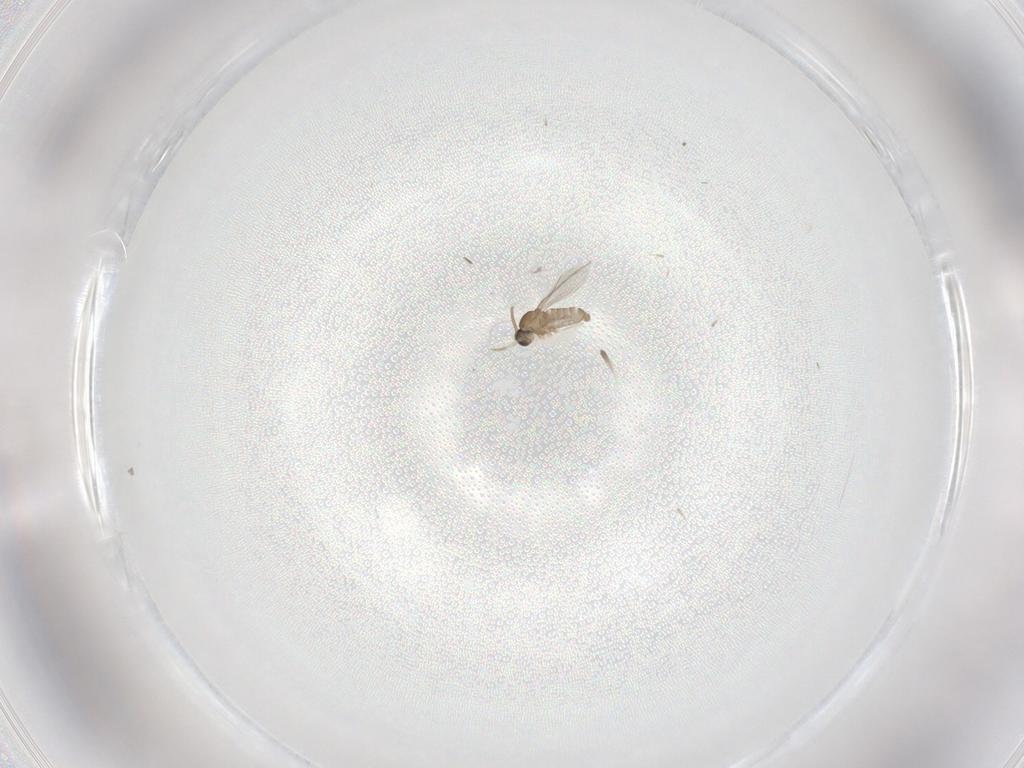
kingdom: Animalia
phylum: Arthropoda
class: Insecta
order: Diptera
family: Cecidomyiidae
